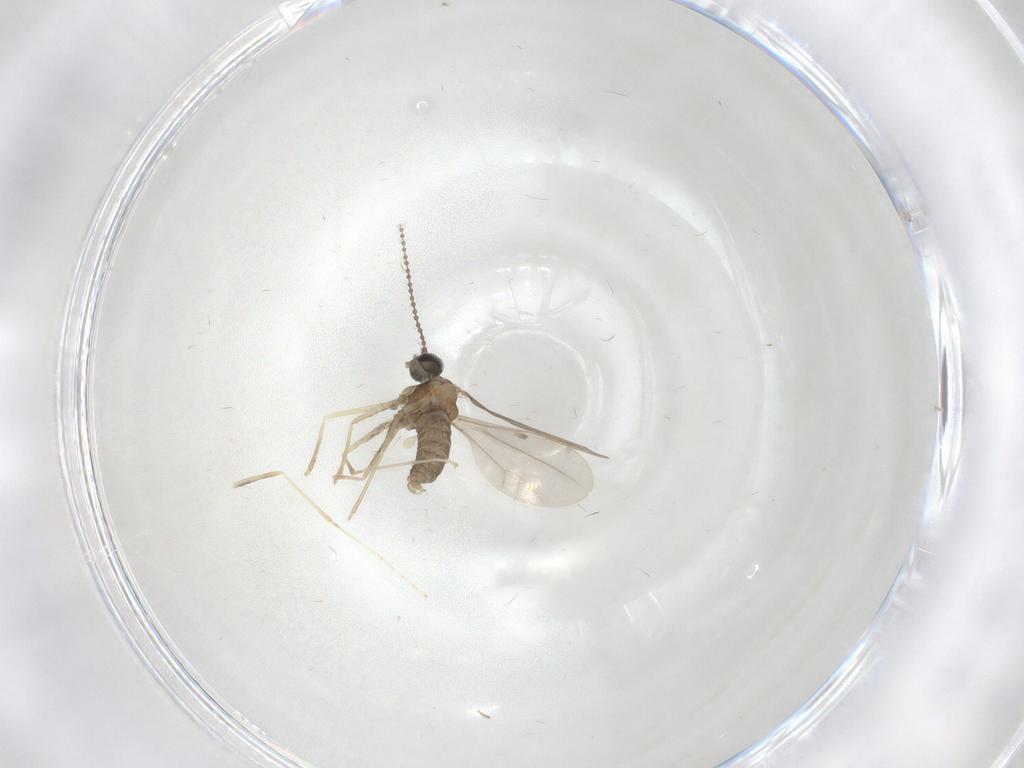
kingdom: Animalia
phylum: Arthropoda
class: Insecta
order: Diptera
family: Cecidomyiidae
